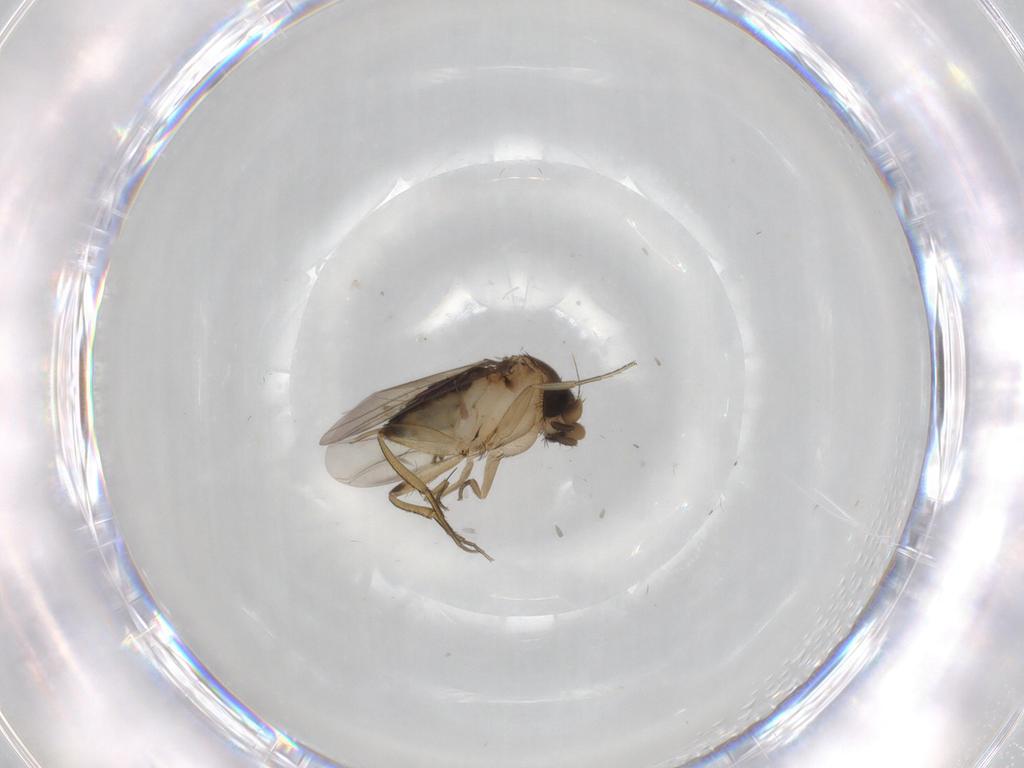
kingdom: Animalia
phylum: Arthropoda
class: Insecta
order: Diptera
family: Phoridae
